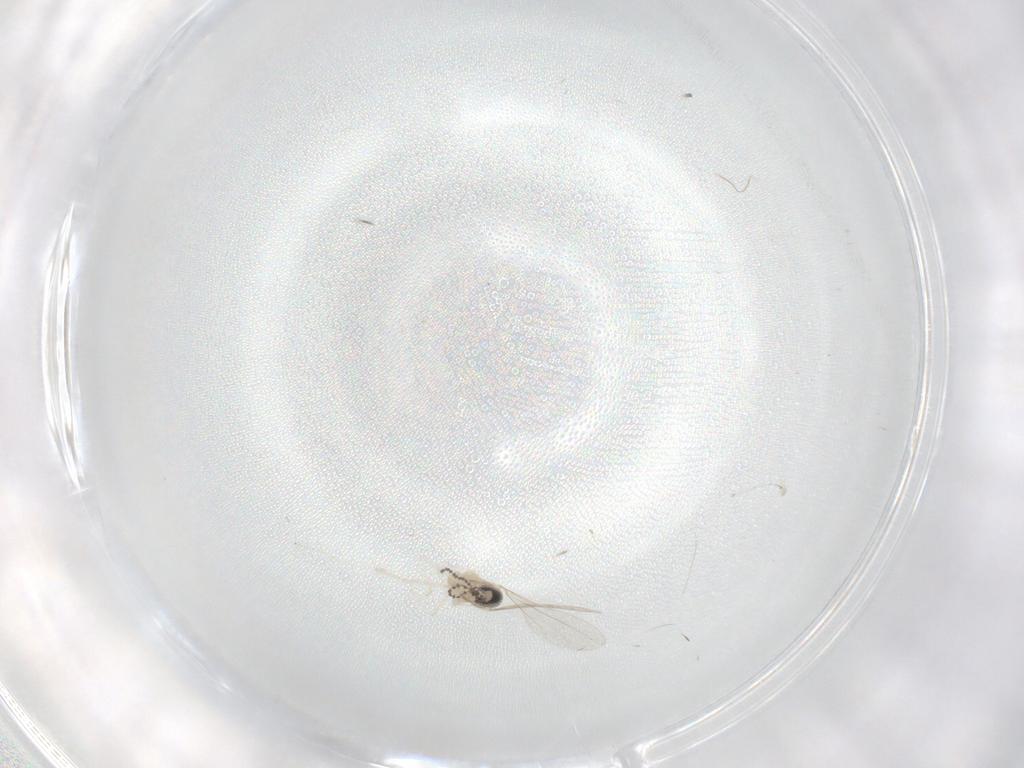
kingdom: Animalia
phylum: Arthropoda
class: Insecta
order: Diptera
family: Cecidomyiidae
